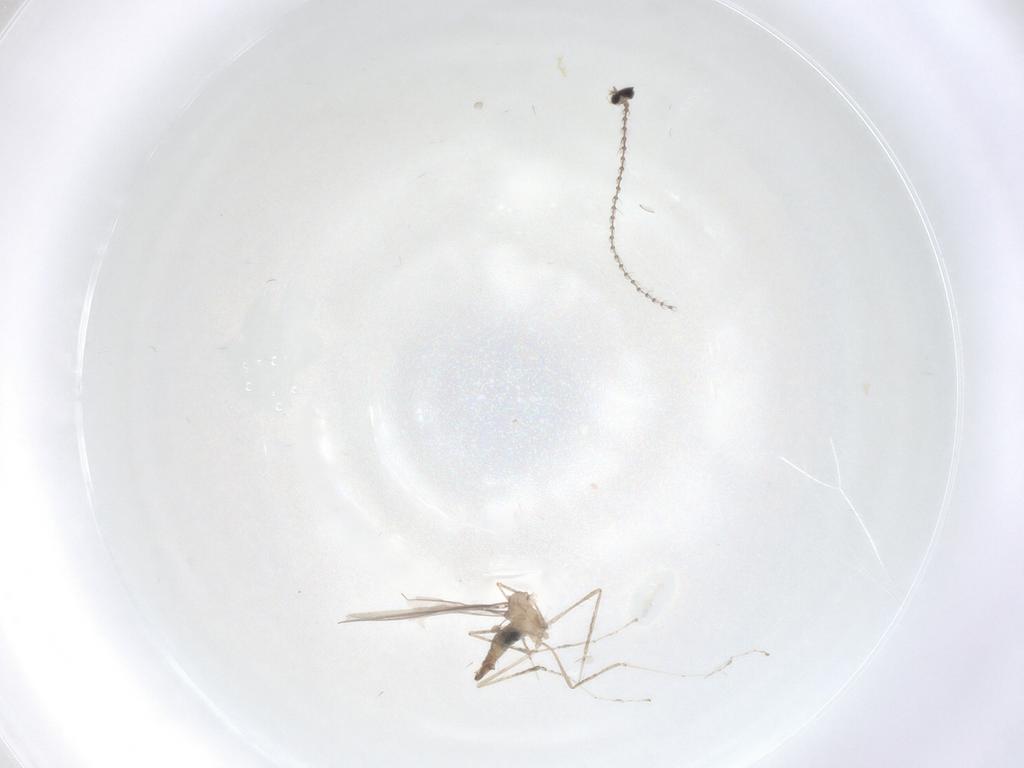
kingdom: Animalia
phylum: Arthropoda
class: Insecta
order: Diptera
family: Cecidomyiidae
